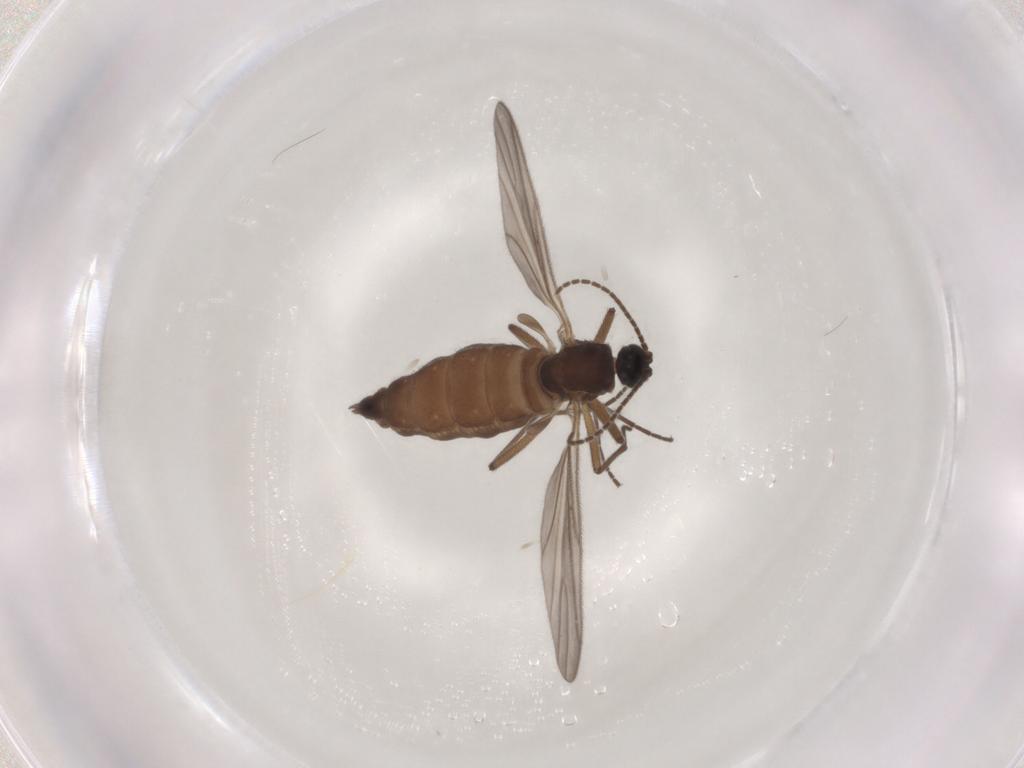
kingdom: Animalia
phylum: Arthropoda
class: Insecta
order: Diptera
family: Sciaridae
